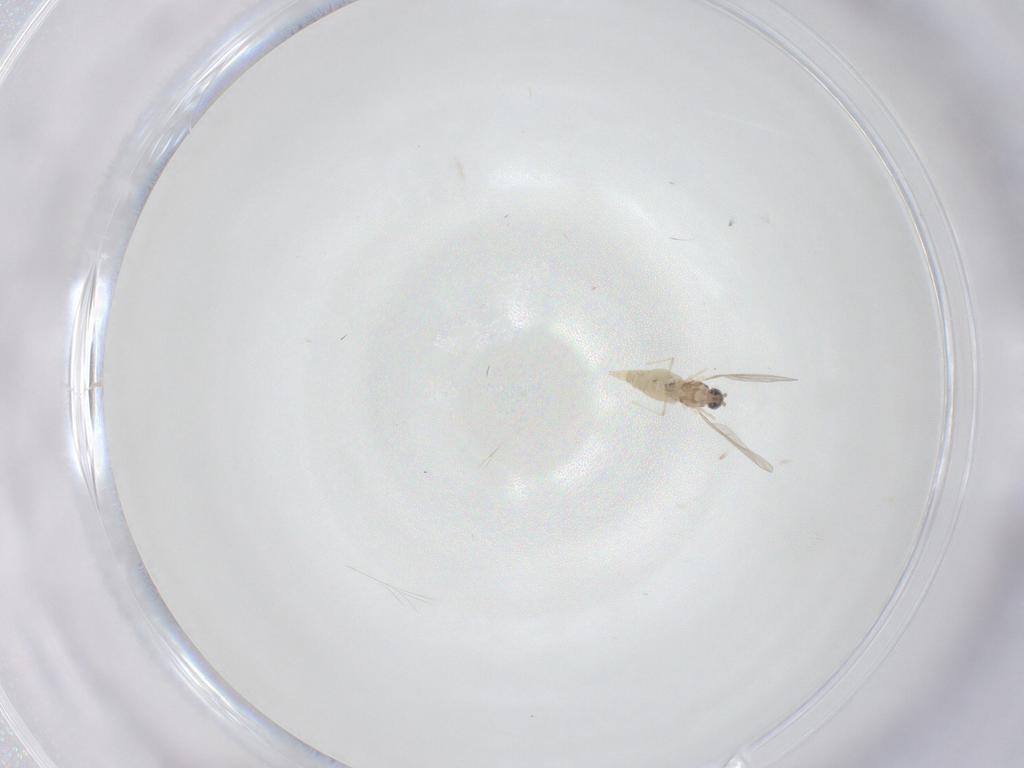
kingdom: Animalia
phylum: Arthropoda
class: Insecta
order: Diptera
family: Cecidomyiidae
